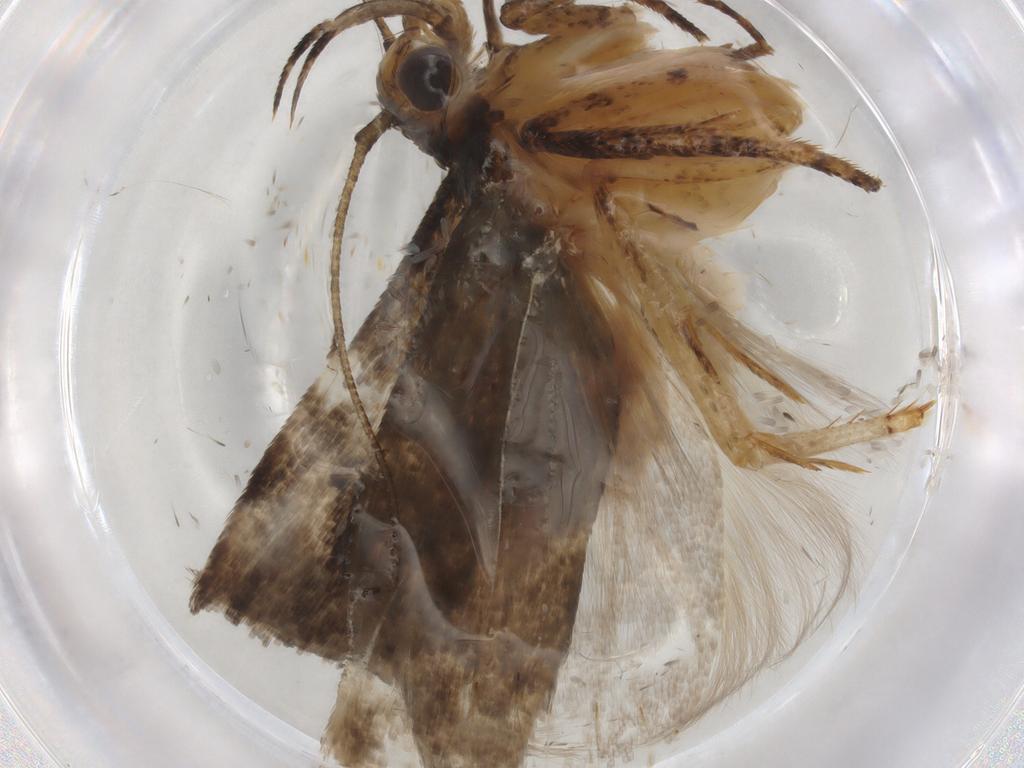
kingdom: Animalia
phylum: Arthropoda
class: Insecta
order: Lepidoptera
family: Gelechiidae
